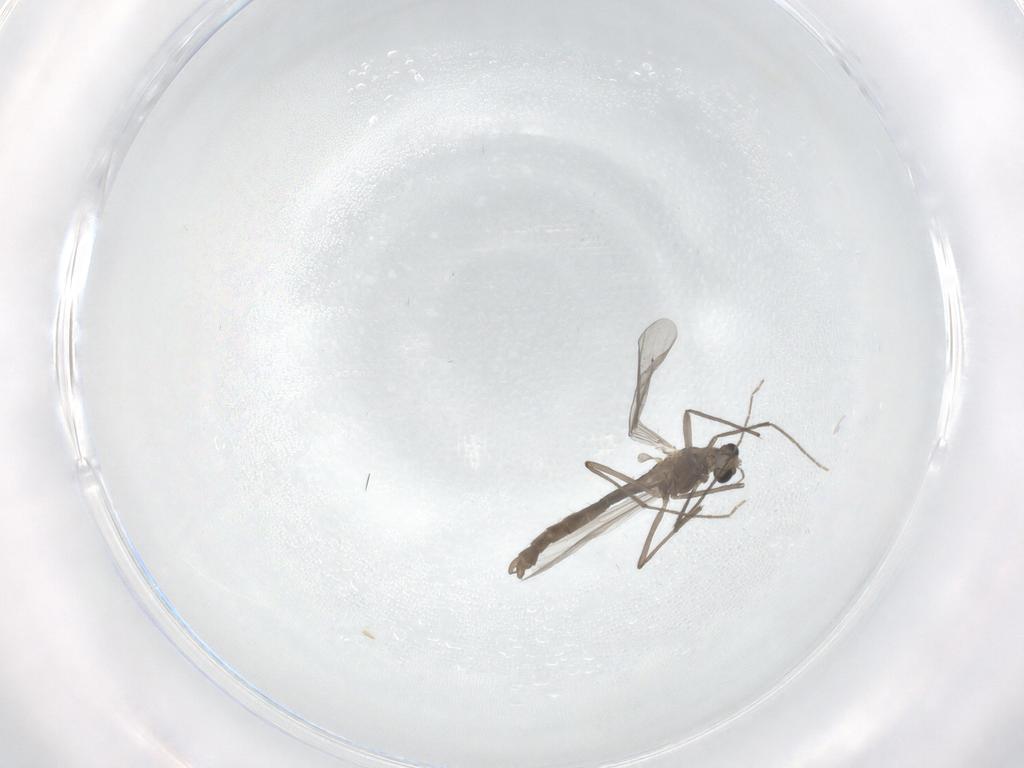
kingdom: Animalia
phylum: Arthropoda
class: Insecta
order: Diptera
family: Chironomidae
